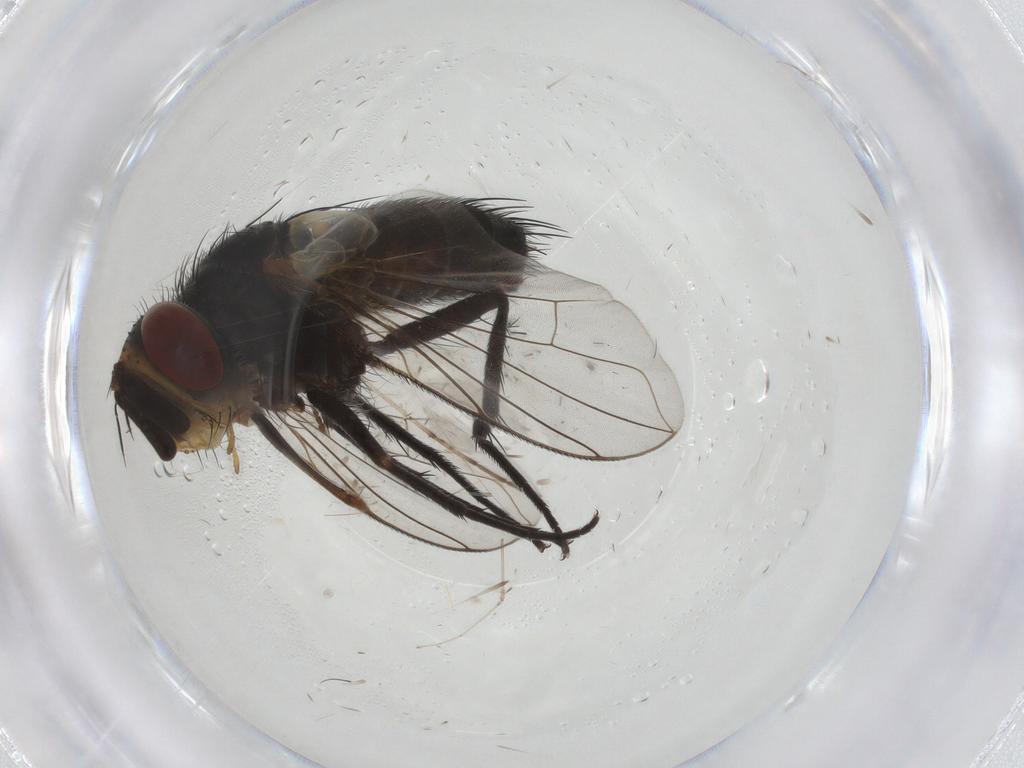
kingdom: Animalia
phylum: Arthropoda
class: Insecta
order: Diptera
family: Tachinidae
